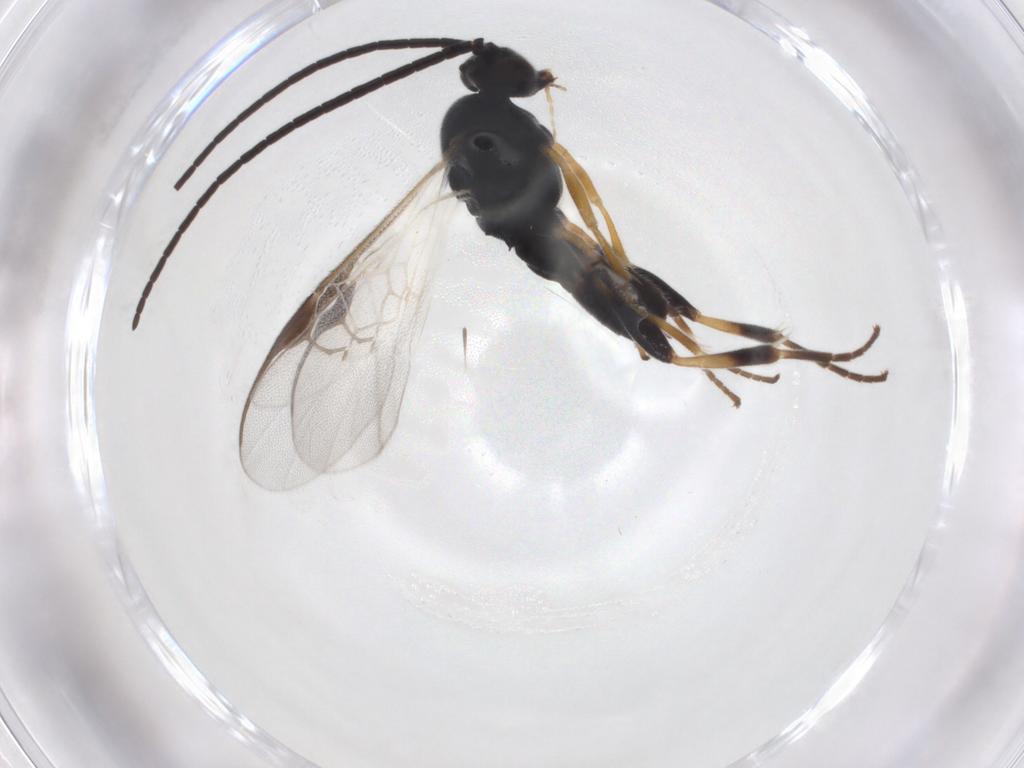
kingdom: Animalia
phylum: Arthropoda
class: Insecta
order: Hymenoptera
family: Braconidae
